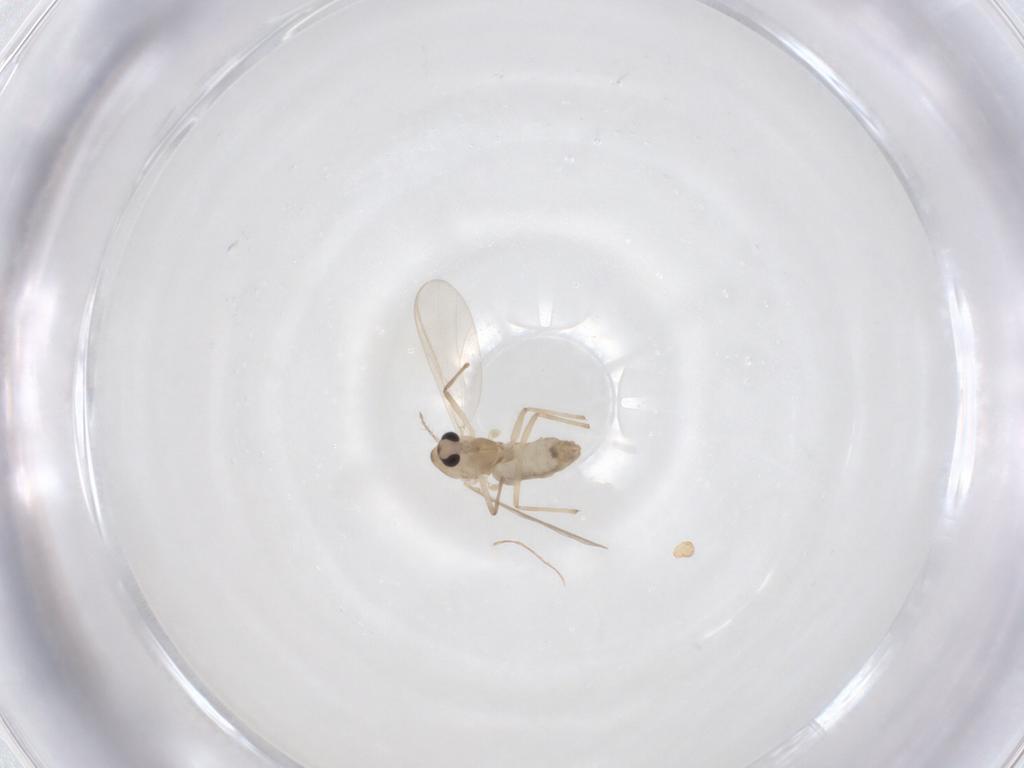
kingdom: Animalia
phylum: Arthropoda
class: Insecta
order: Diptera
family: Chironomidae
